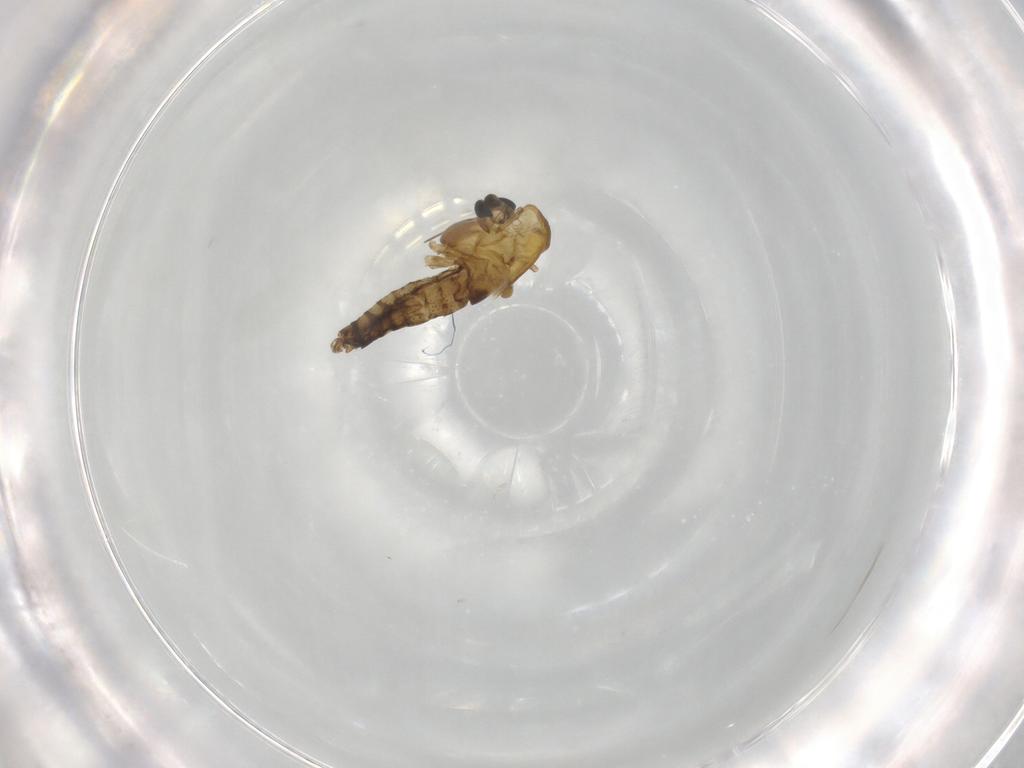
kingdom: Animalia
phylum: Arthropoda
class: Insecta
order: Diptera
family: Chironomidae
